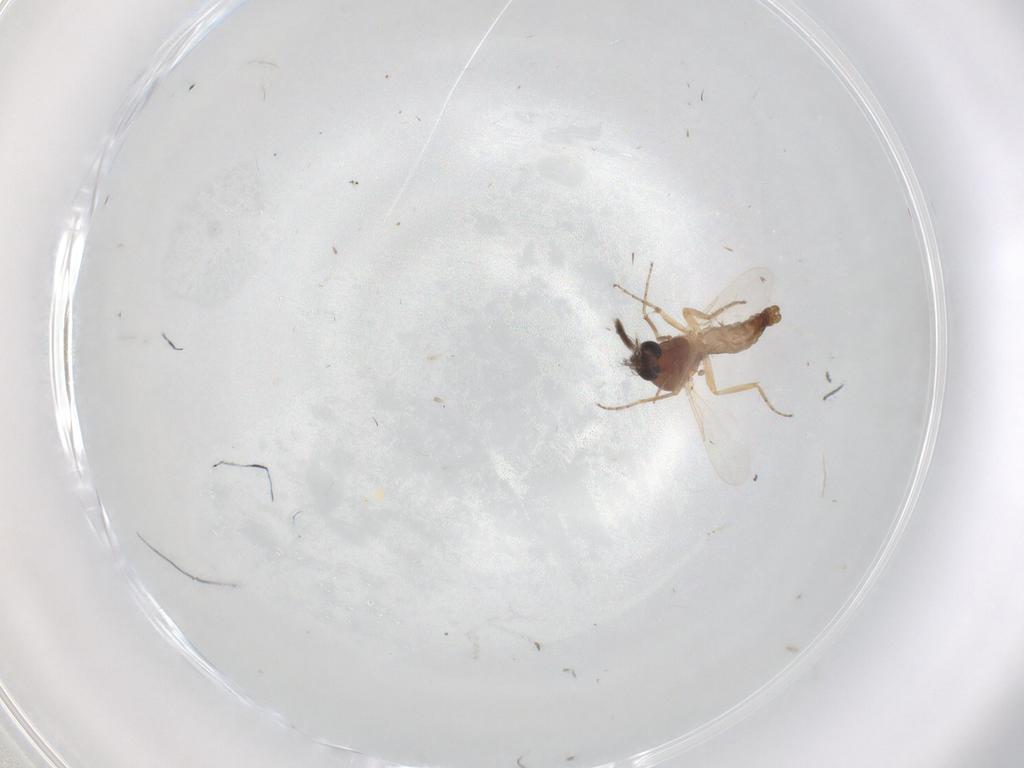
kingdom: Animalia
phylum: Arthropoda
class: Insecta
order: Diptera
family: Ceratopogonidae
